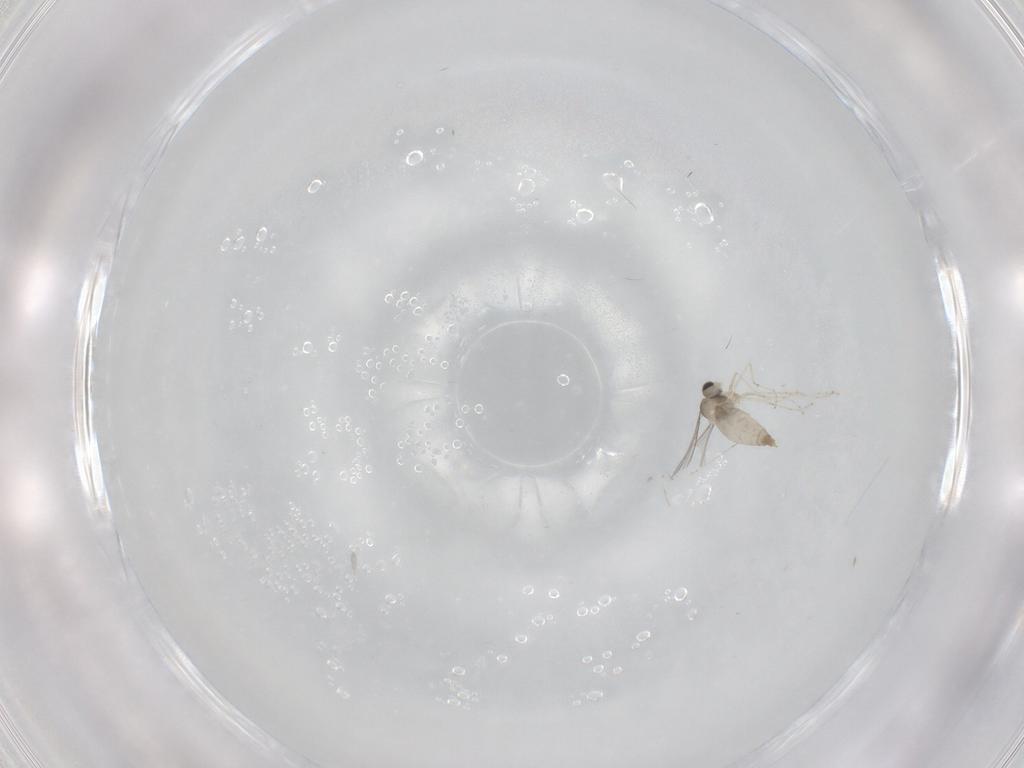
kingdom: Animalia
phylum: Arthropoda
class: Insecta
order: Diptera
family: Cecidomyiidae
